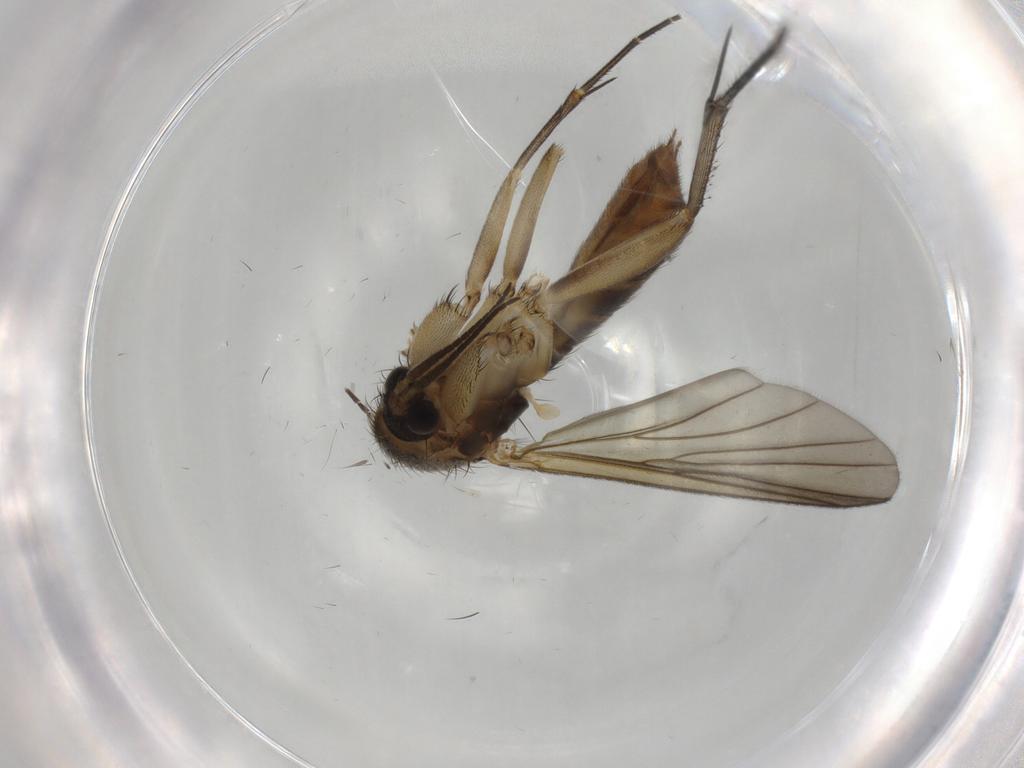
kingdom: Animalia
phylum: Arthropoda
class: Insecta
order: Diptera
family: Mycetophilidae
